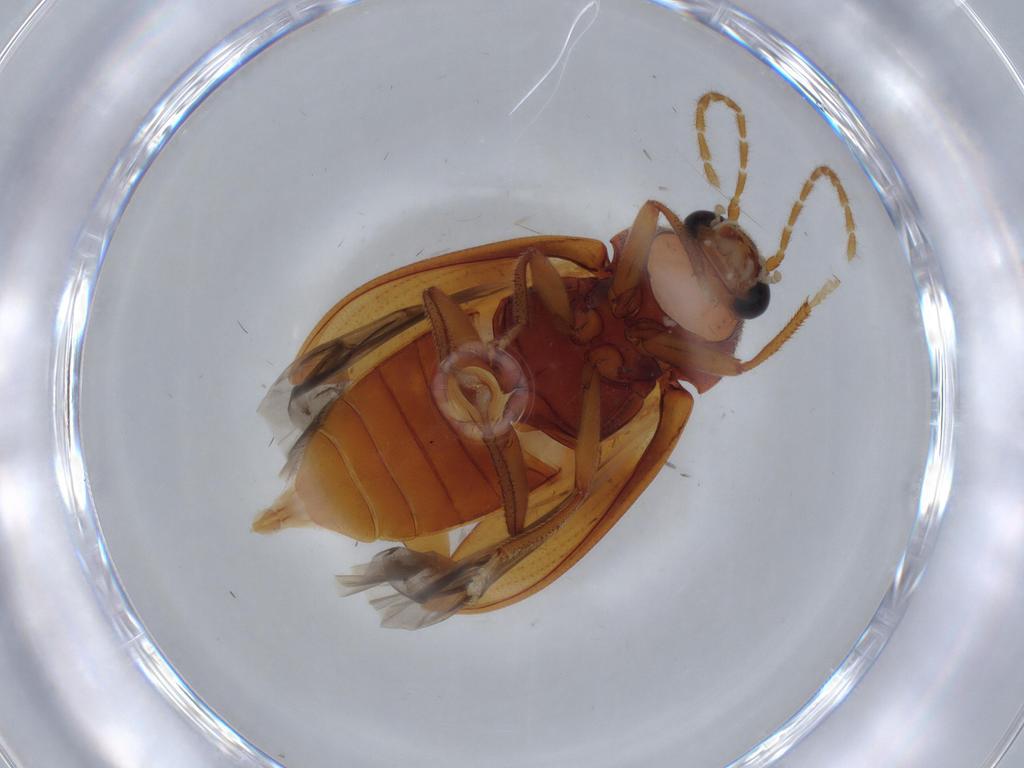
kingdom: Animalia
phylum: Arthropoda
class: Insecta
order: Coleoptera
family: Ptilodactylidae
